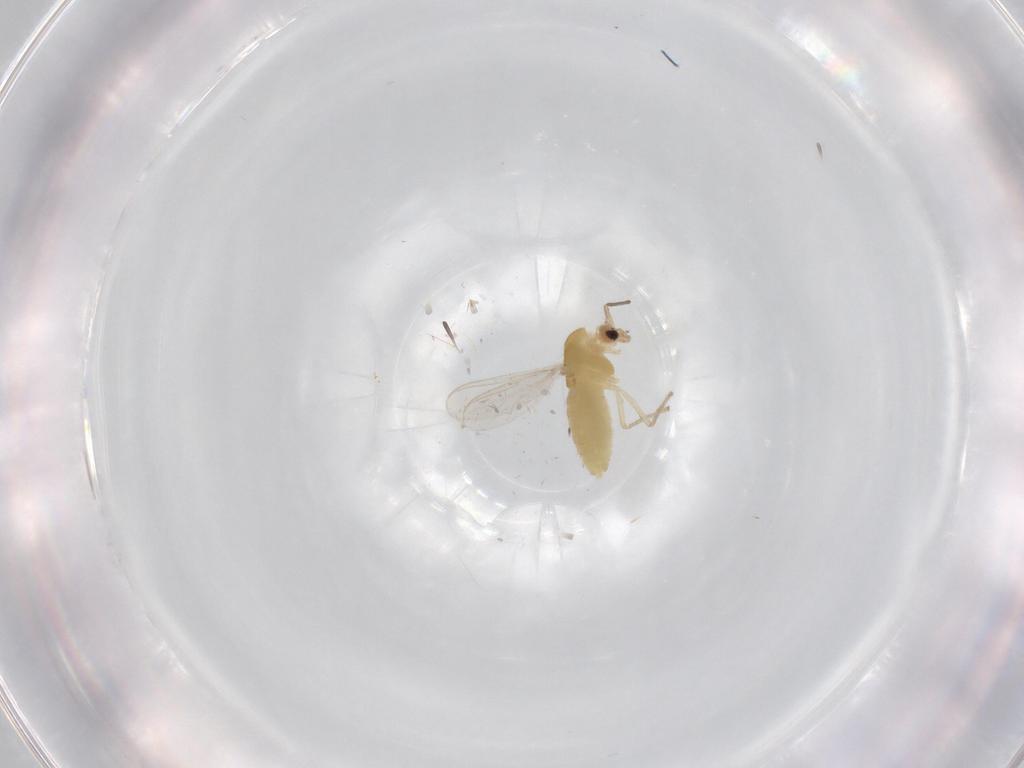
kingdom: Animalia
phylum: Arthropoda
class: Insecta
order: Diptera
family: Chironomidae
